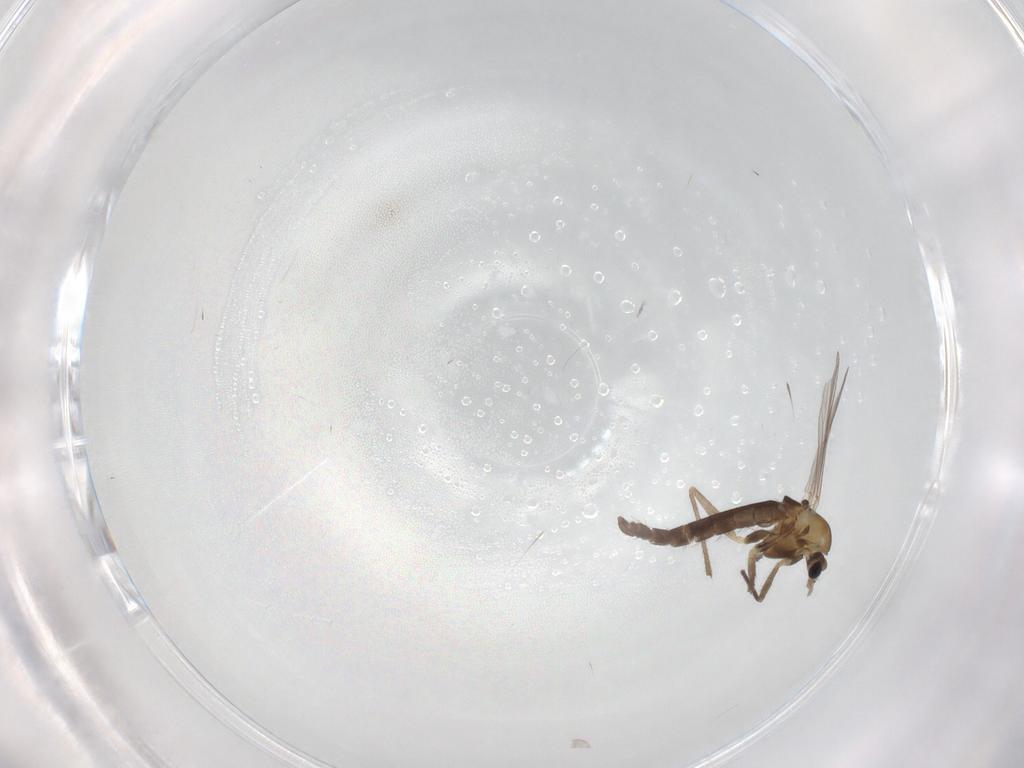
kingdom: Animalia
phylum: Arthropoda
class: Insecta
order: Diptera
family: Chironomidae
